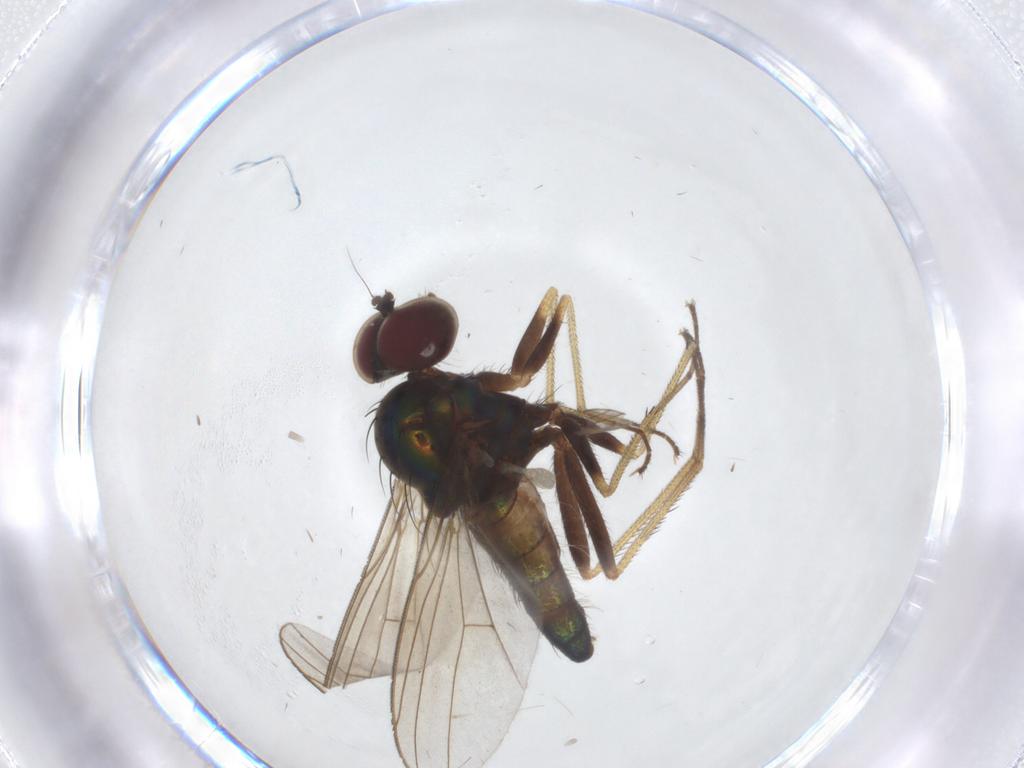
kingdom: Animalia
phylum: Arthropoda
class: Insecta
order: Diptera
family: Dolichopodidae
